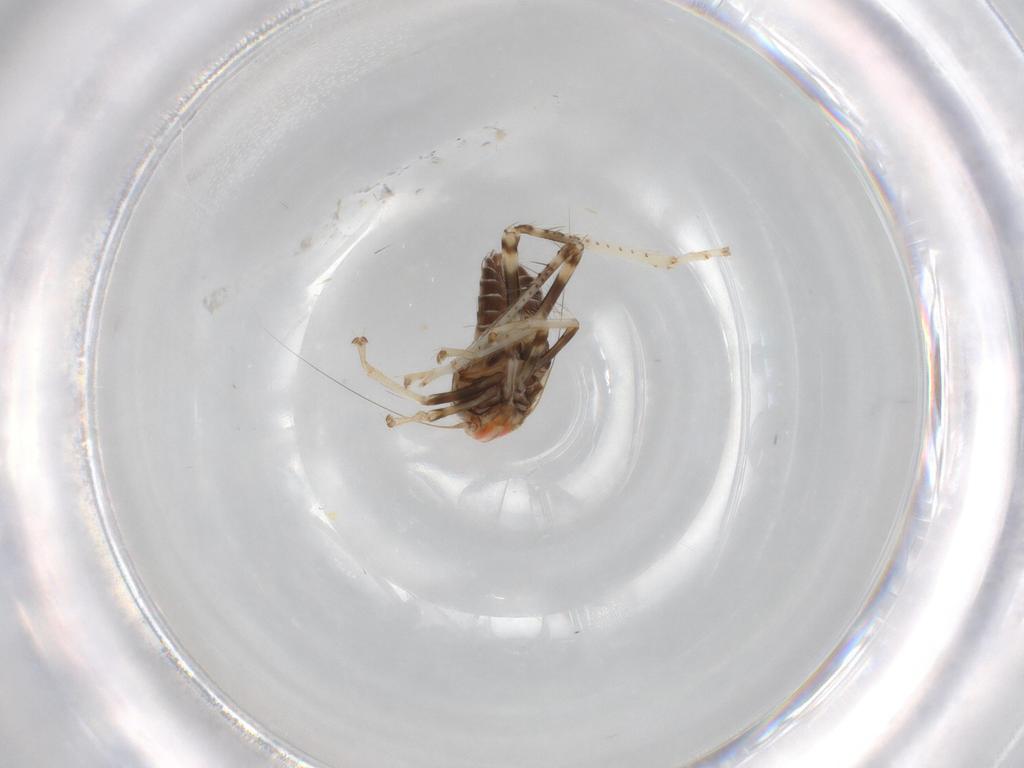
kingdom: Animalia
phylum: Arthropoda
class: Insecta
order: Hemiptera
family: Cicadellidae
